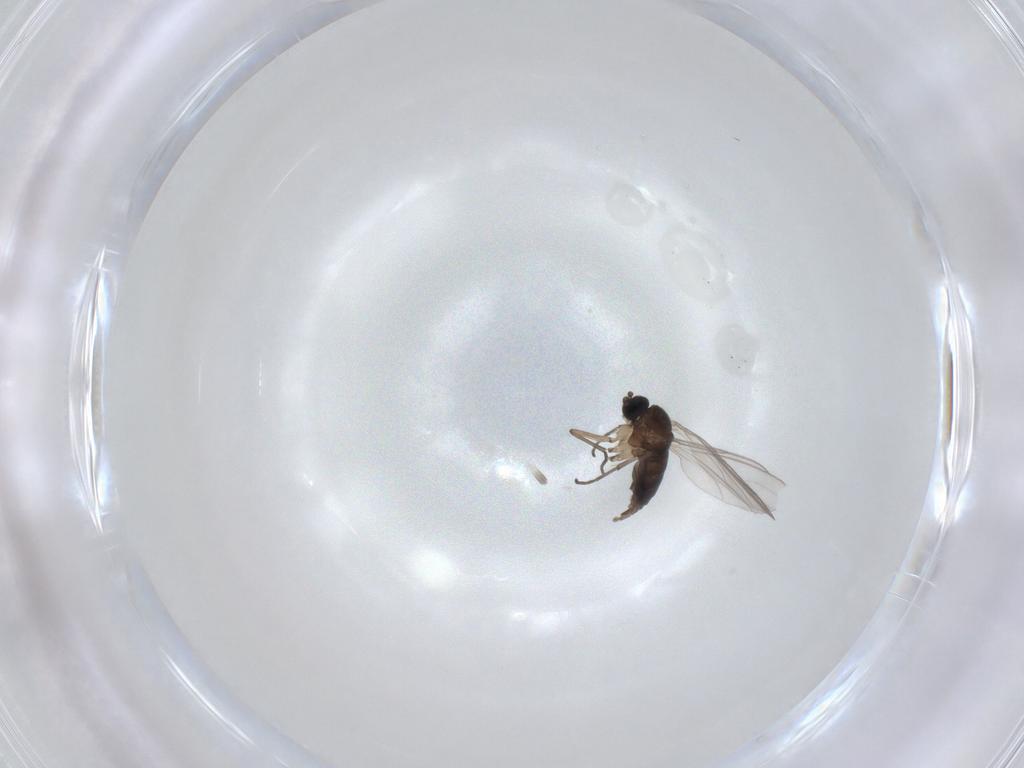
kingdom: Animalia
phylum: Arthropoda
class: Insecta
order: Diptera
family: Sciaridae
